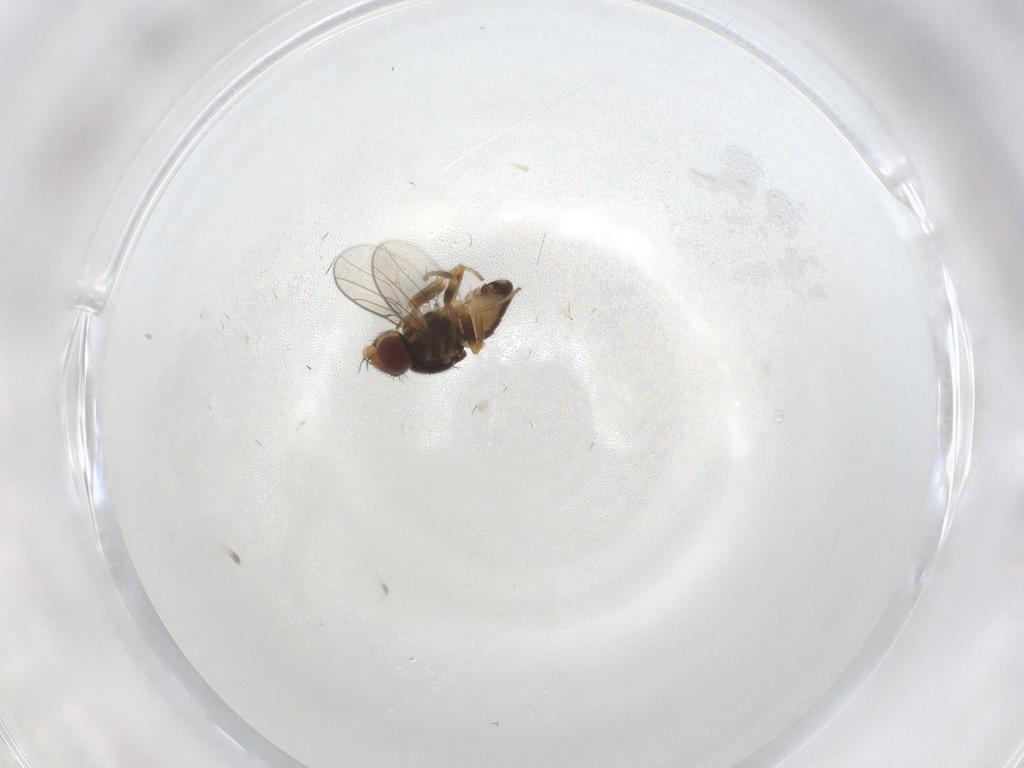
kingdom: Animalia
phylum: Arthropoda
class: Insecta
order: Diptera
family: Chloropidae
